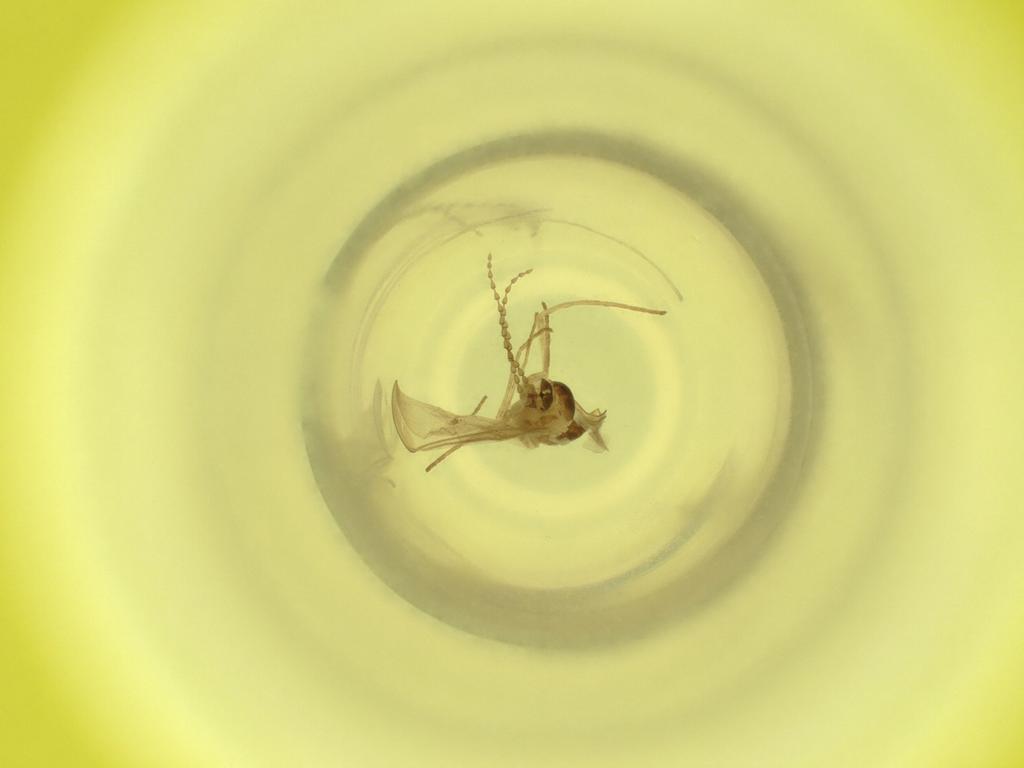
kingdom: Animalia
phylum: Arthropoda
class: Insecta
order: Diptera
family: Cecidomyiidae
